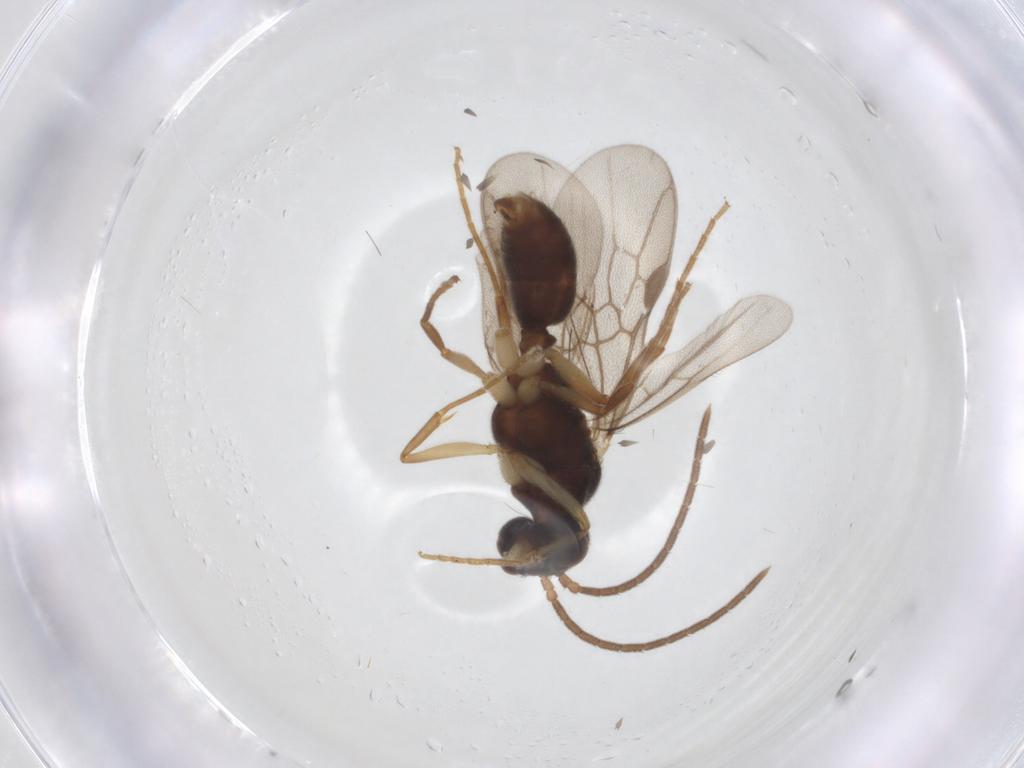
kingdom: Animalia
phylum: Arthropoda
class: Insecta
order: Hymenoptera
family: Formicidae
